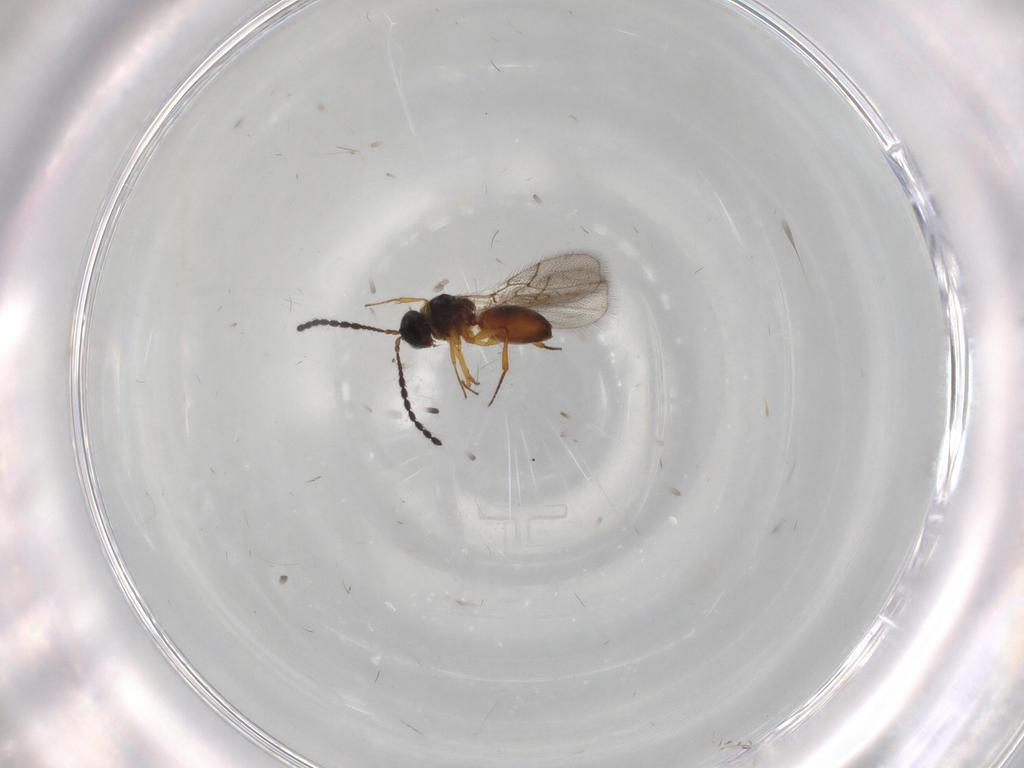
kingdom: Animalia
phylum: Arthropoda
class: Insecta
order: Hymenoptera
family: Figitidae
